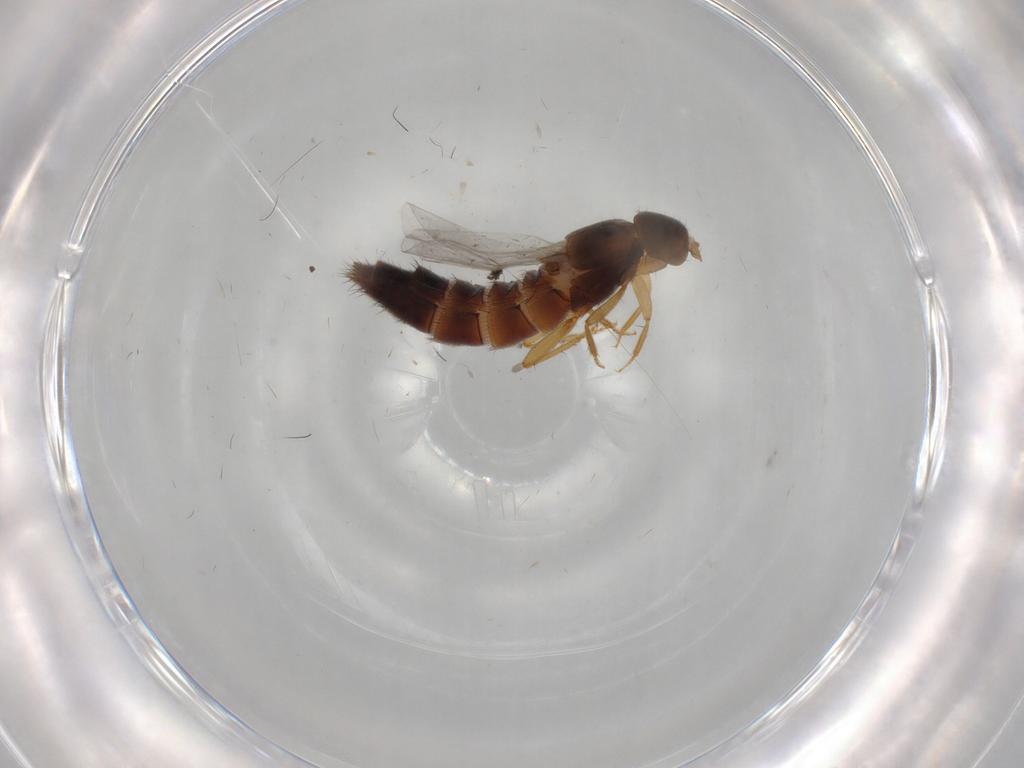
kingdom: Animalia
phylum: Arthropoda
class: Insecta
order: Coleoptera
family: Staphylinidae
